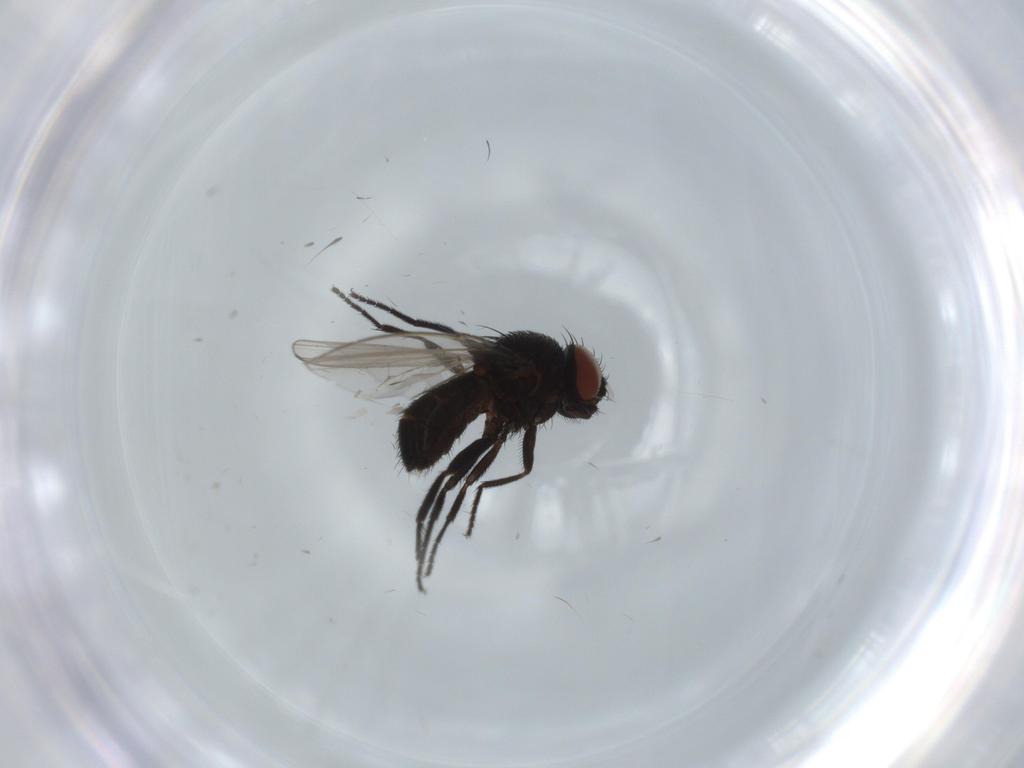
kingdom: Animalia
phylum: Arthropoda
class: Insecta
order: Diptera
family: Milichiidae
